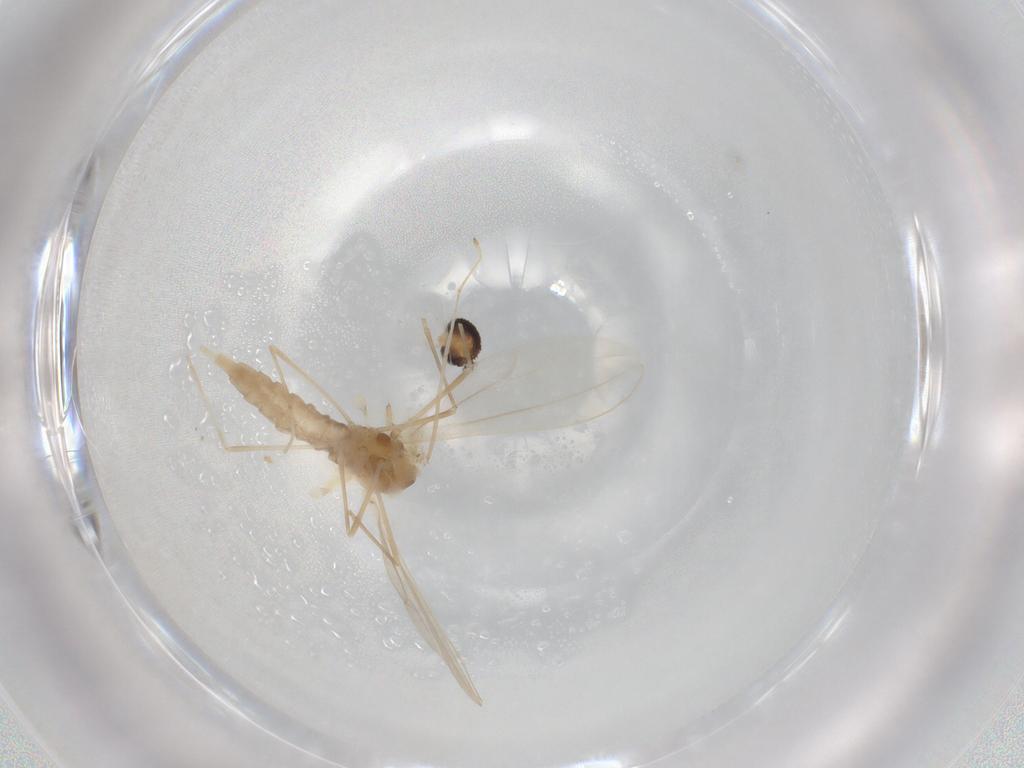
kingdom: Animalia
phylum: Arthropoda
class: Insecta
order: Diptera
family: Cecidomyiidae
